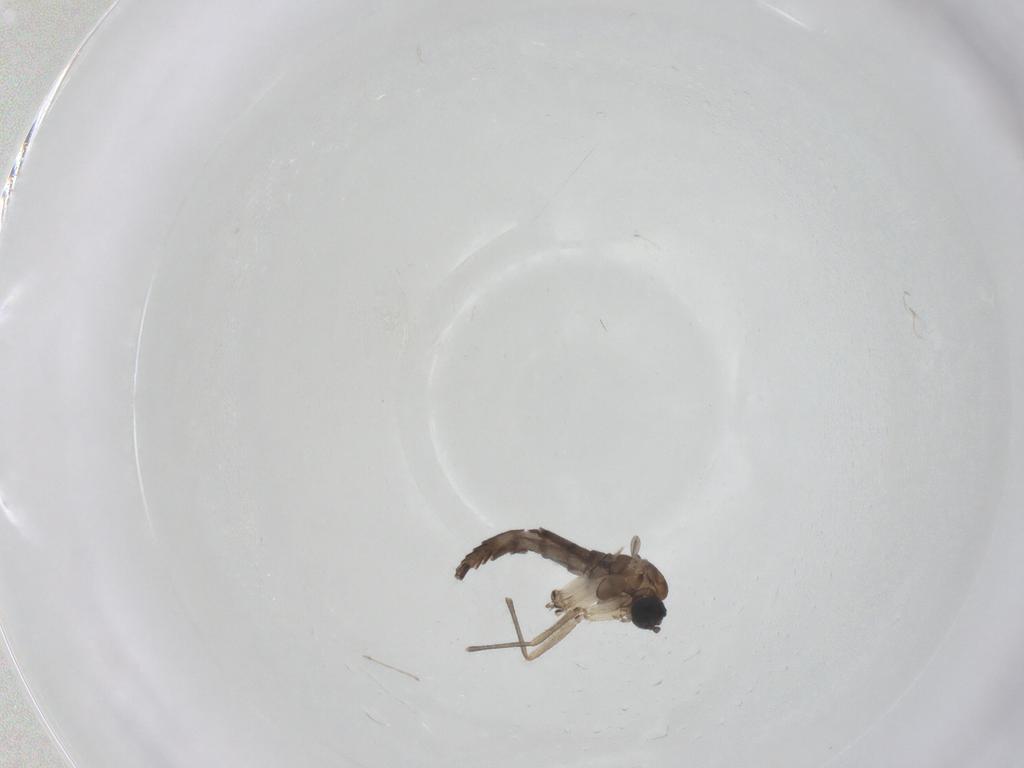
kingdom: Animalia
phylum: Arthropoda
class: Insecta
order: Diptera
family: Sciaridae
